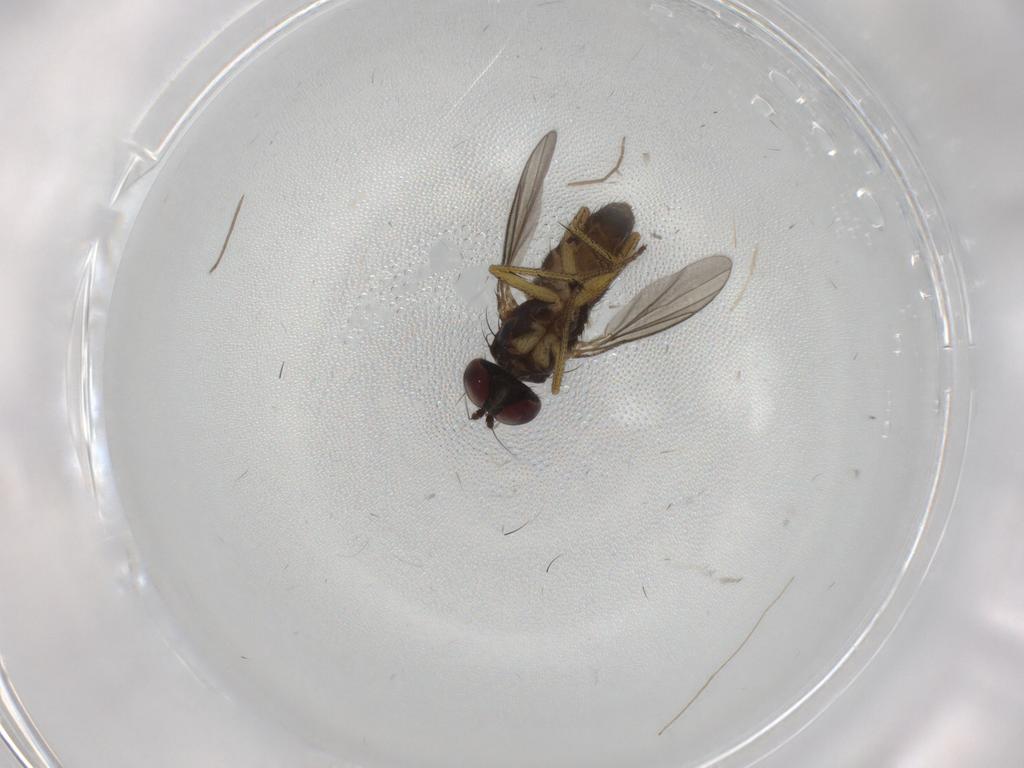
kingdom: Animalia
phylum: Arthropoda
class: Insecta
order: Diptera
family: Chironomidae
